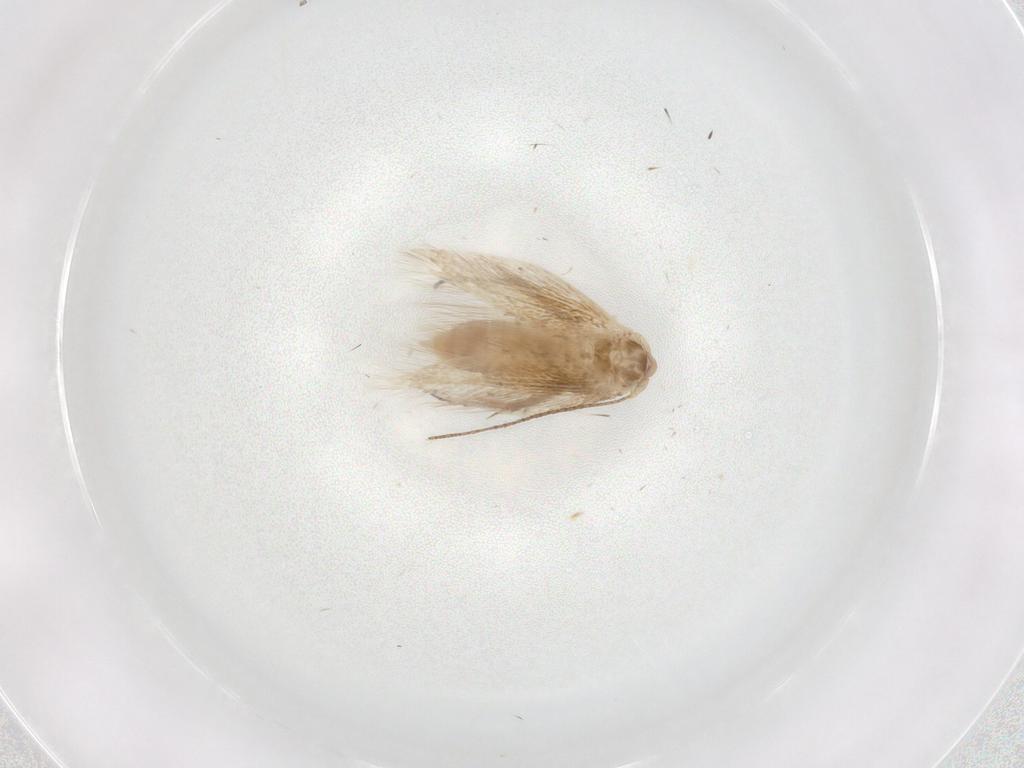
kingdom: Animalia
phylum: Arthropoda
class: Insecta
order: Lepidoptera
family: Bucculatricidae
